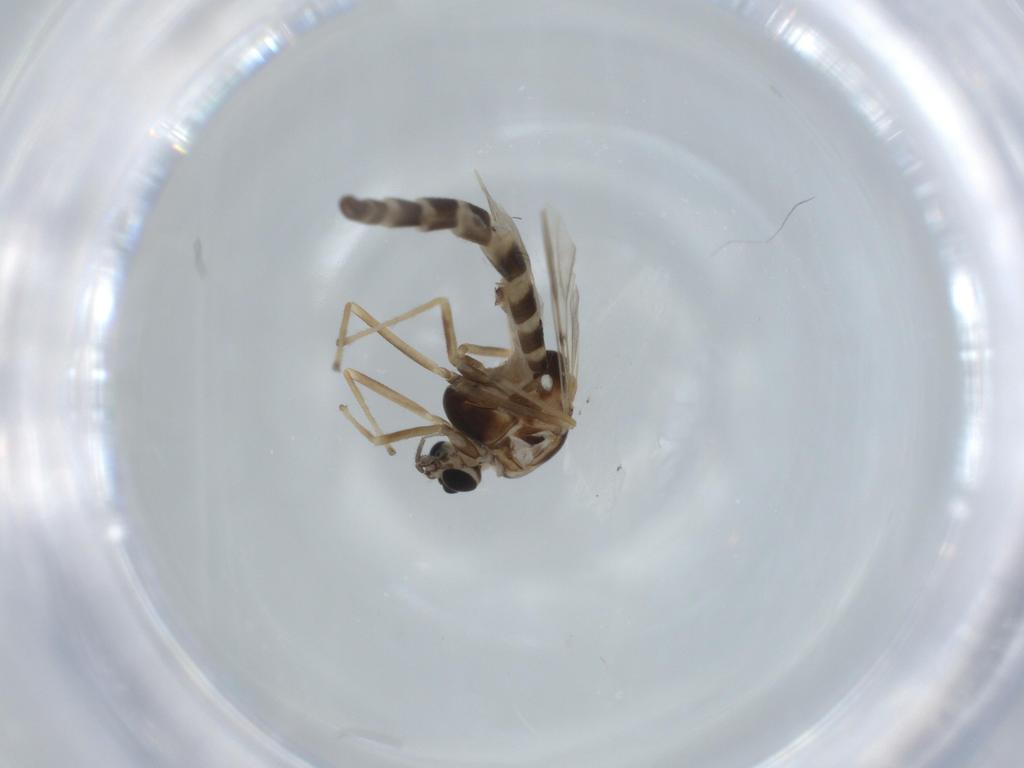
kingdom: Animalia
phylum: Arthropoda
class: Insecta
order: Diptera
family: Chironomidae
